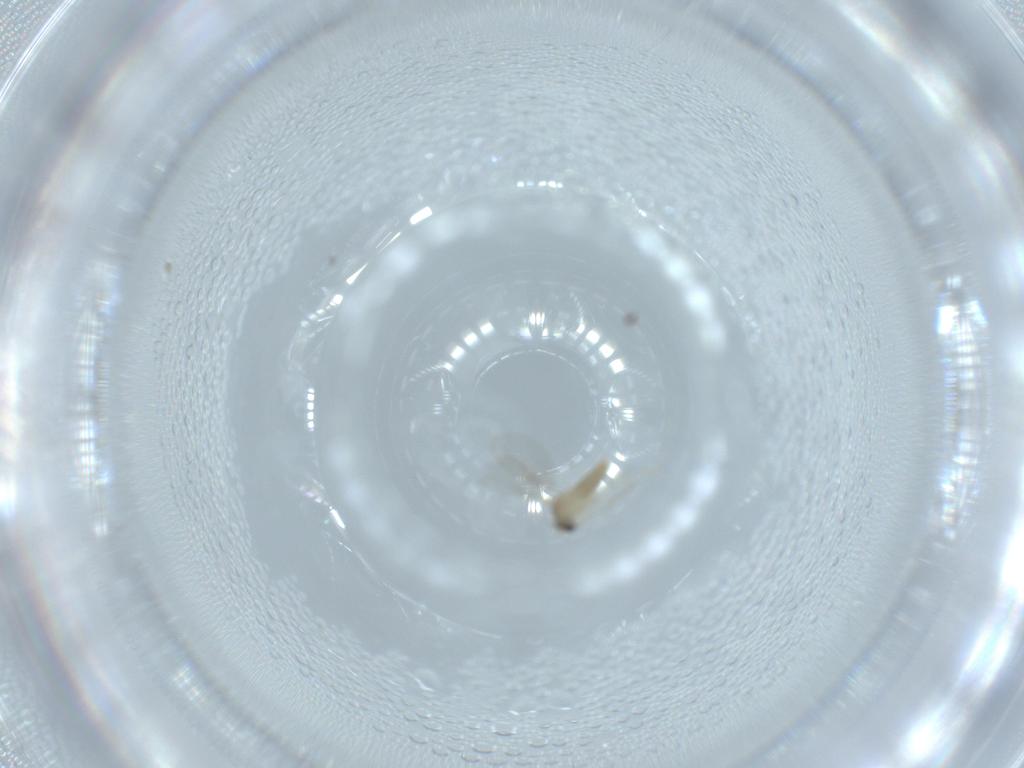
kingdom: Animalia
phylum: Arthropoda
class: Insecta
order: Diptera
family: Cecidomyiidae
